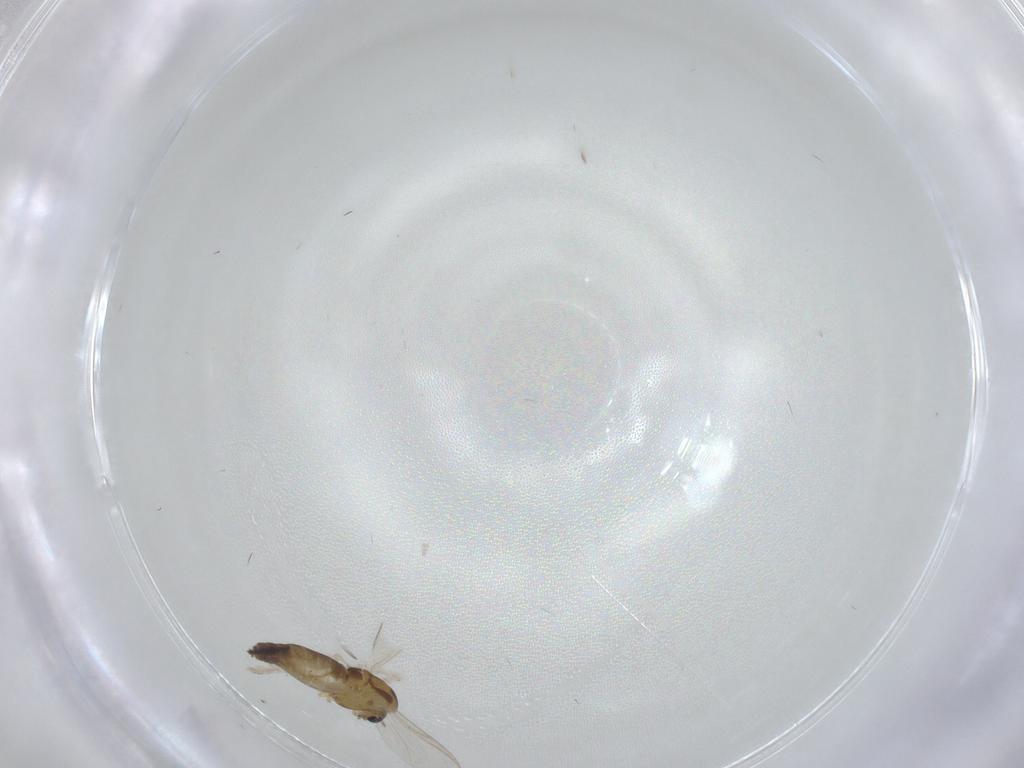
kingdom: Animalia
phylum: Arthropoda
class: Insecta
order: Diptera
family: Chironomidae
